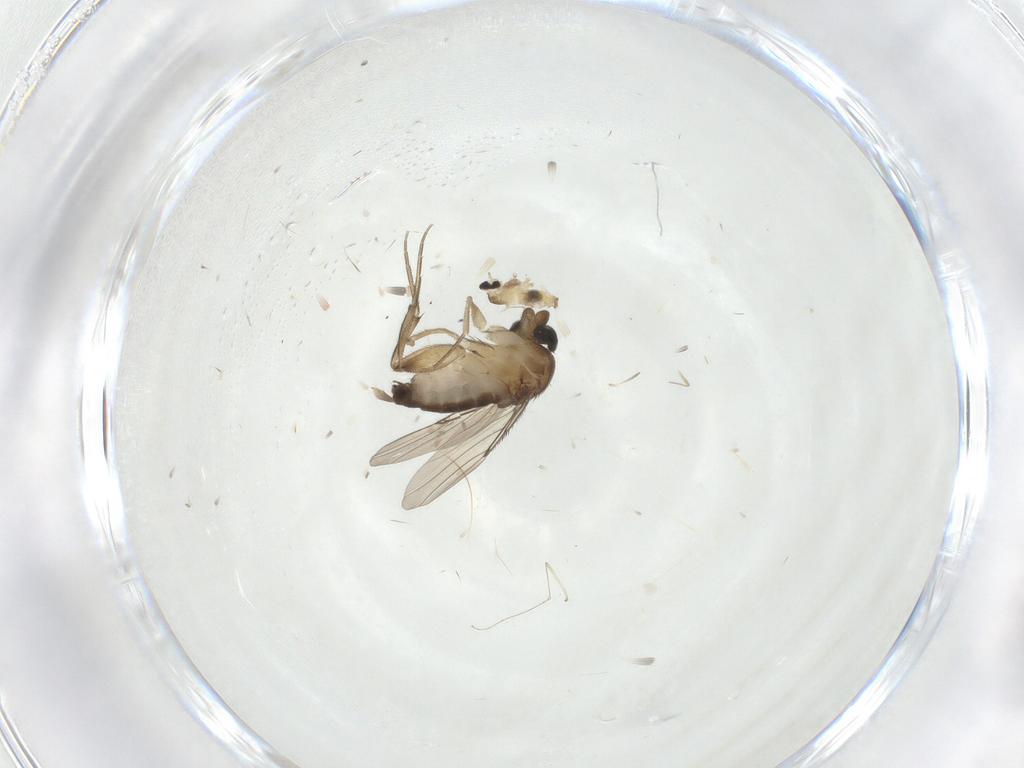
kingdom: Animalia
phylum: Arthropoda
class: Insecta
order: Diptera
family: Phoridae
